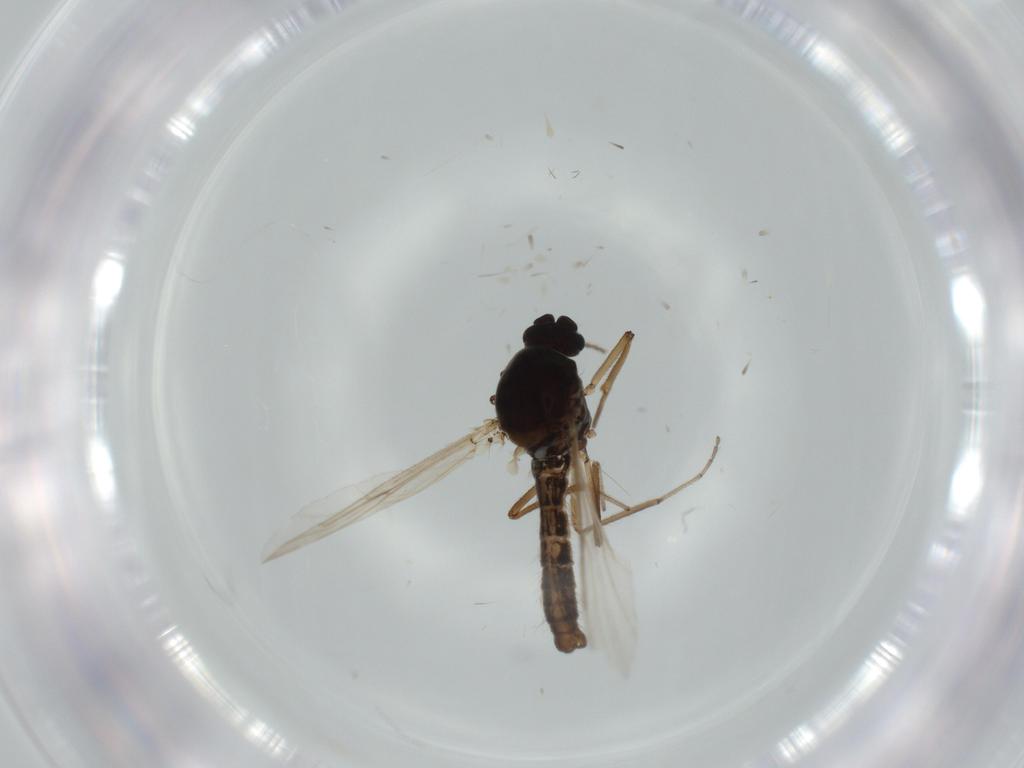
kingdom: Animalia
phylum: Arthropoda
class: Insecta
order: Diptera
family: Ceratopogonidae
